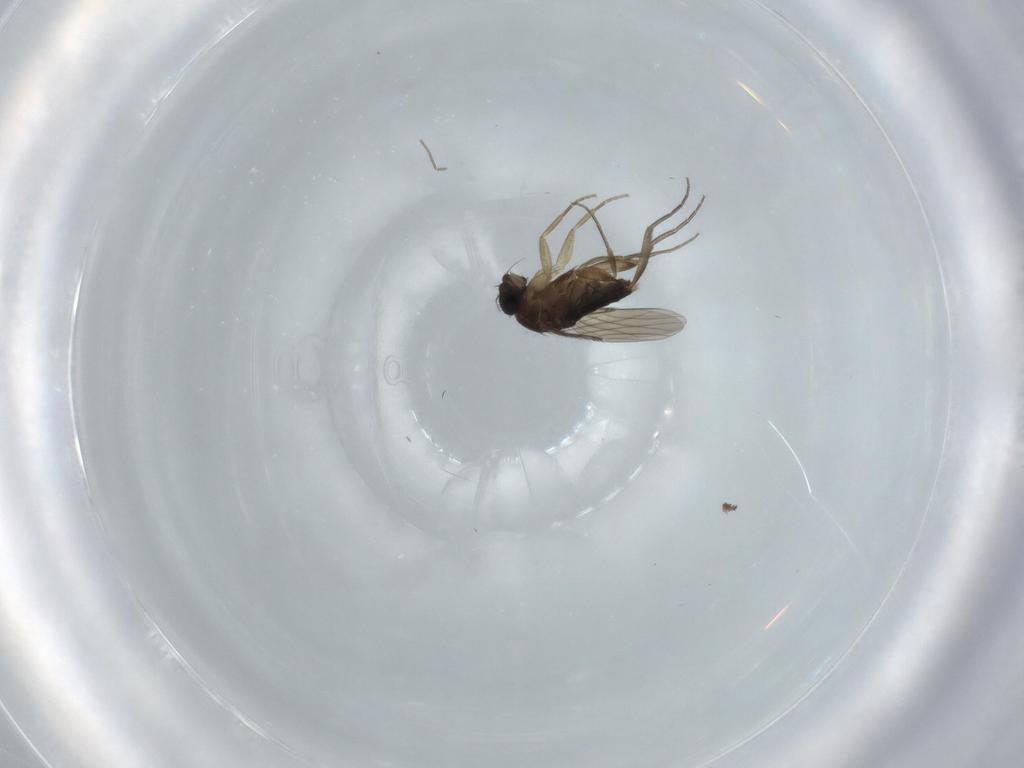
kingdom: Animalia
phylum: Arthropoda
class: Insecta
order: Diptera
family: Phoridae
